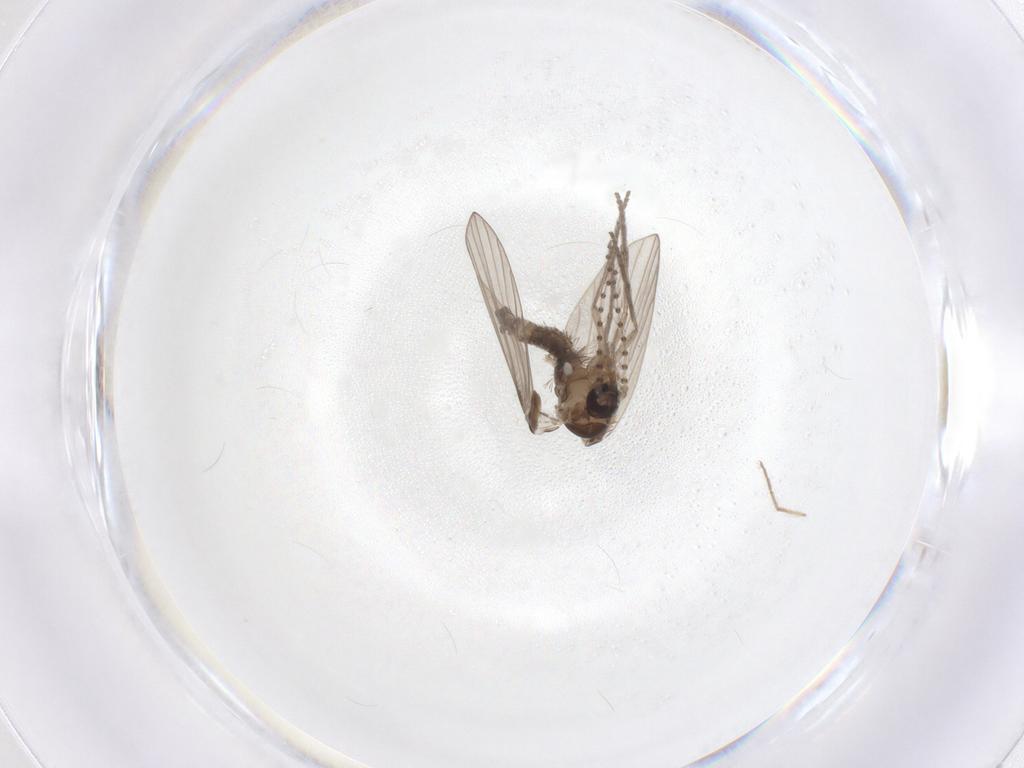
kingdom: Animalia
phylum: Arthropoda
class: Insecta
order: Diptera
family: Psychodidae
